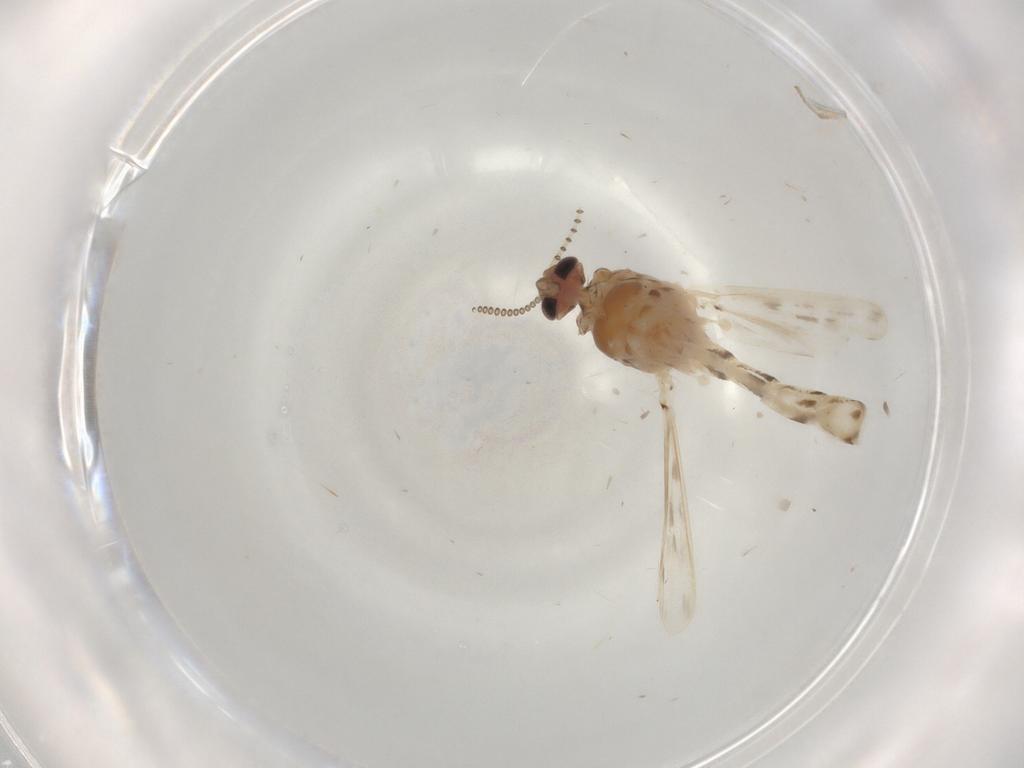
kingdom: Animalia
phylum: Arthropoda
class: Insecta
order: Diptera
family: Chaoboridae
